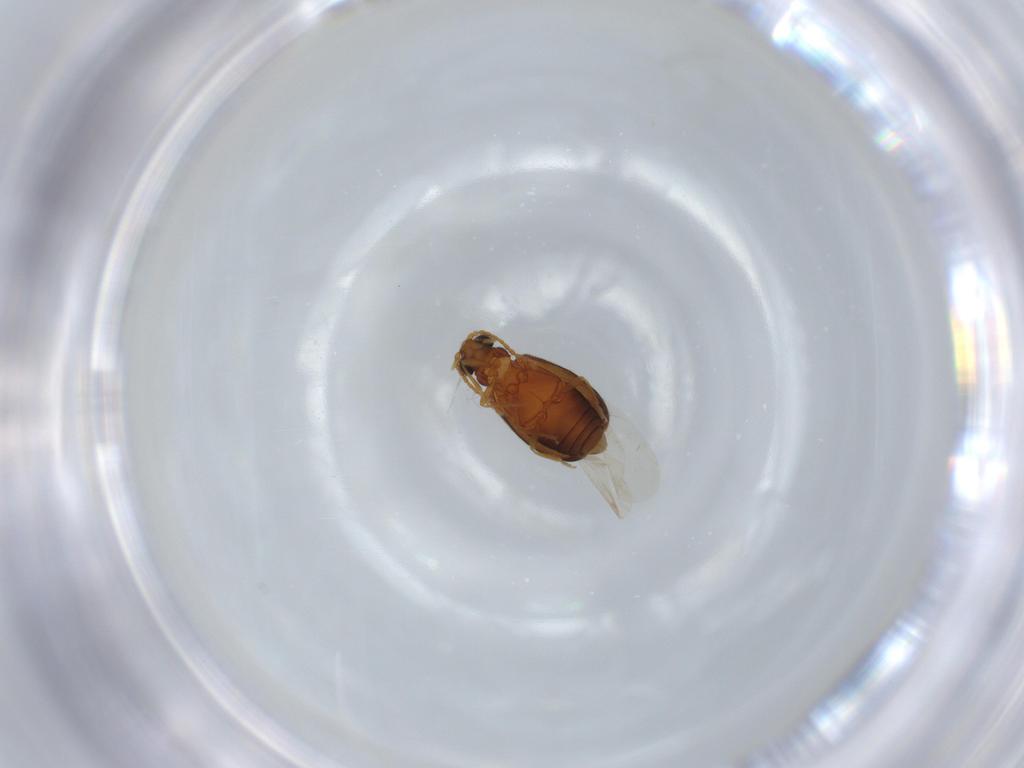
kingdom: Animalia
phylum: Arthropoda
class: Insecta
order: Coleoptera
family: Aderidae
